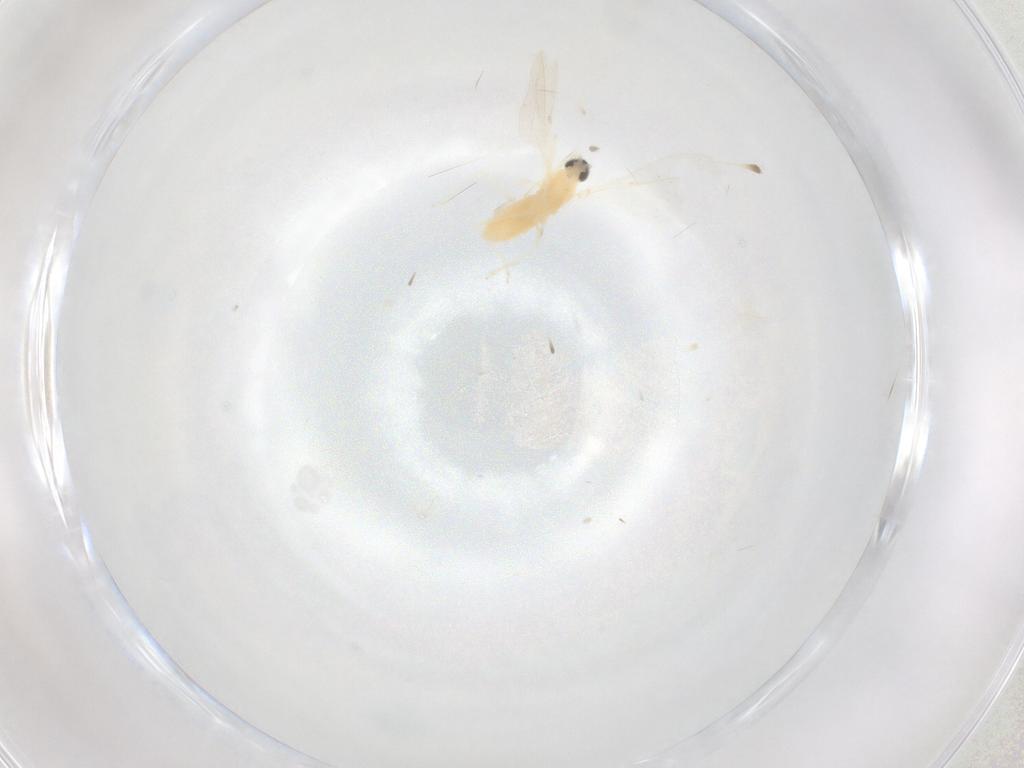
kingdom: Animalia
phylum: Arthropoda
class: Insecta
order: Diptera
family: Cecidomyiidae
